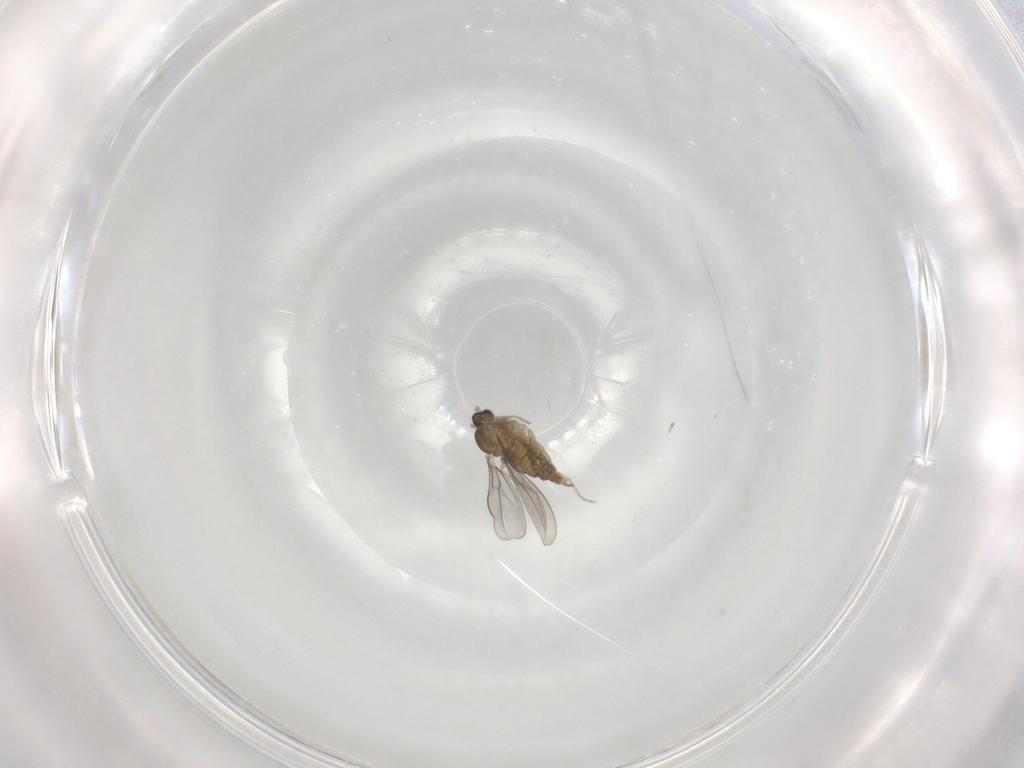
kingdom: Animalia
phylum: Arthropoda
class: Insecta
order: Diptera
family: Cecidomyiidae
